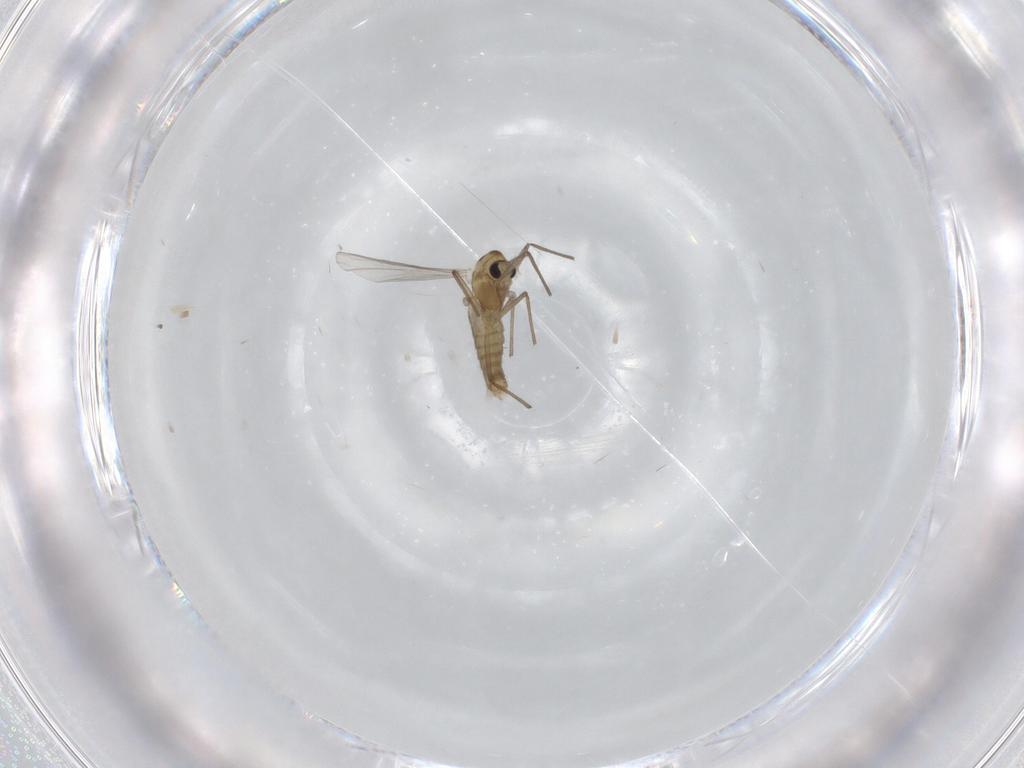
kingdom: Animalia
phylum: Arthropoda
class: Insecta
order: Diptera
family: Chironomidae
